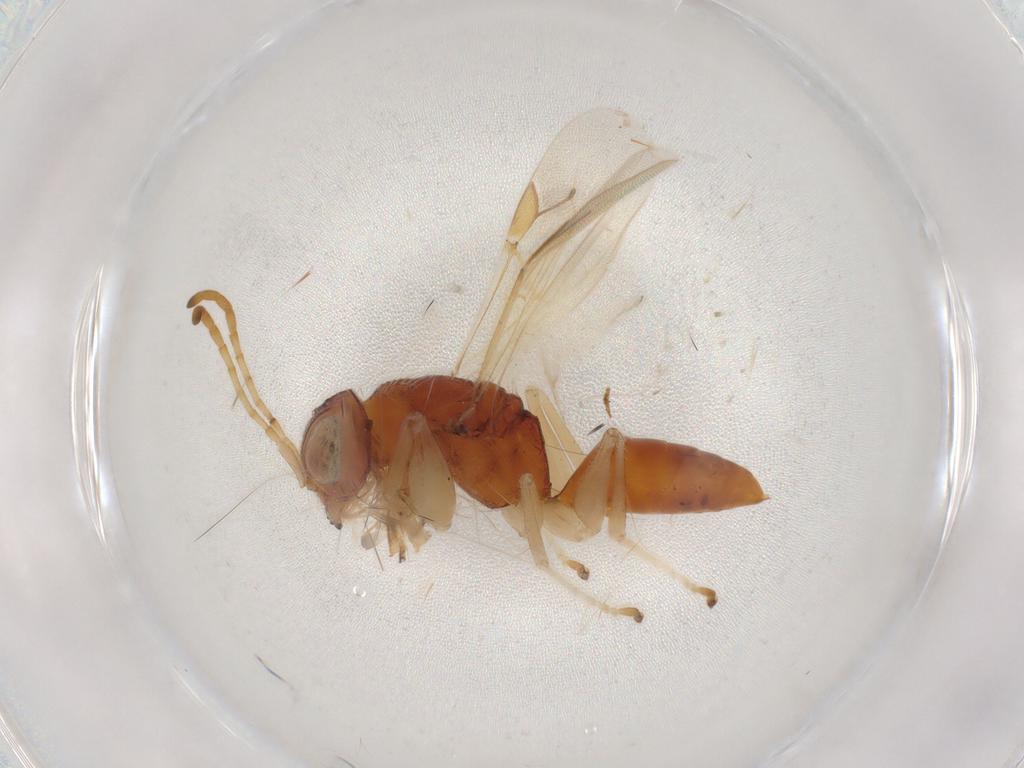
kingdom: Animalia
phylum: Arthropoda
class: Insecta
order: Hymenoptera
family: Dryinidae
